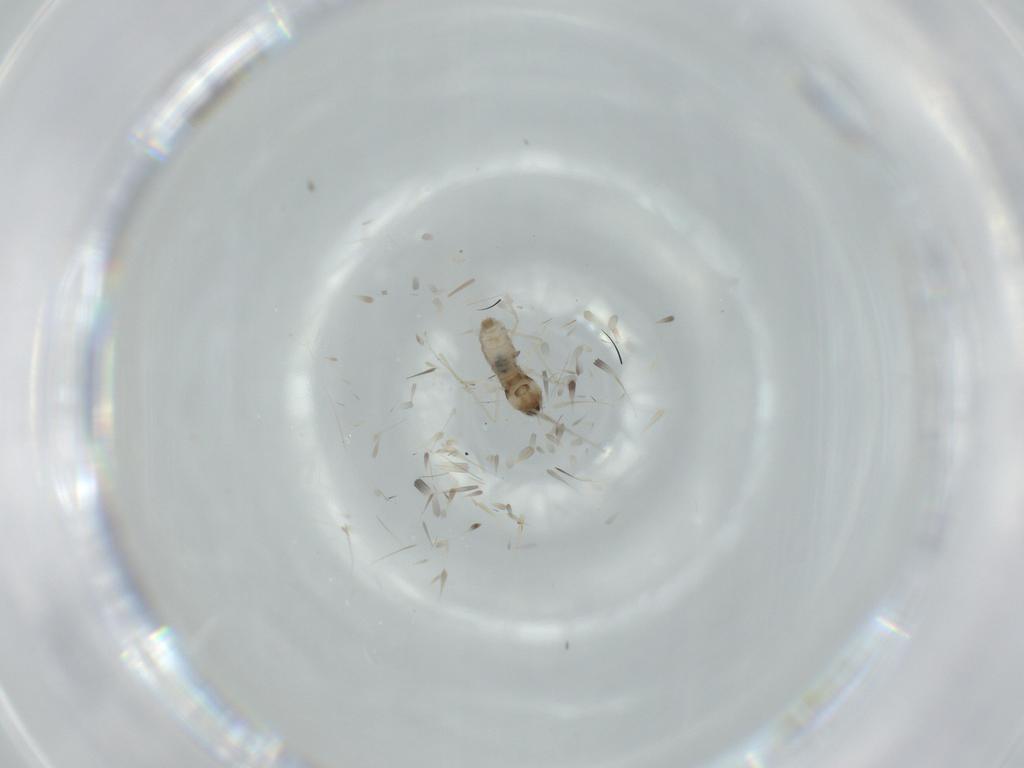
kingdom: Animalia
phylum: Arthropoda
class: Insecta
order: Diptera
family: Cecidomyiidae
